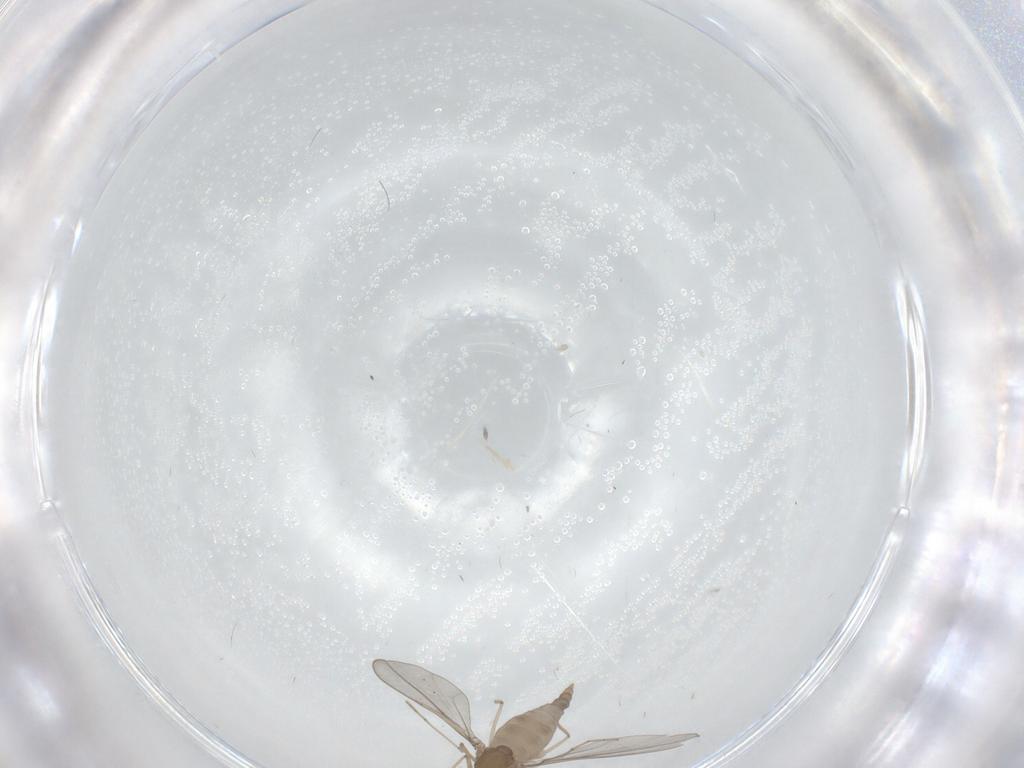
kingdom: Animalia
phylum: Arthropoda
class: Insecta
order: Diptera
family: Cecidomyiidae
